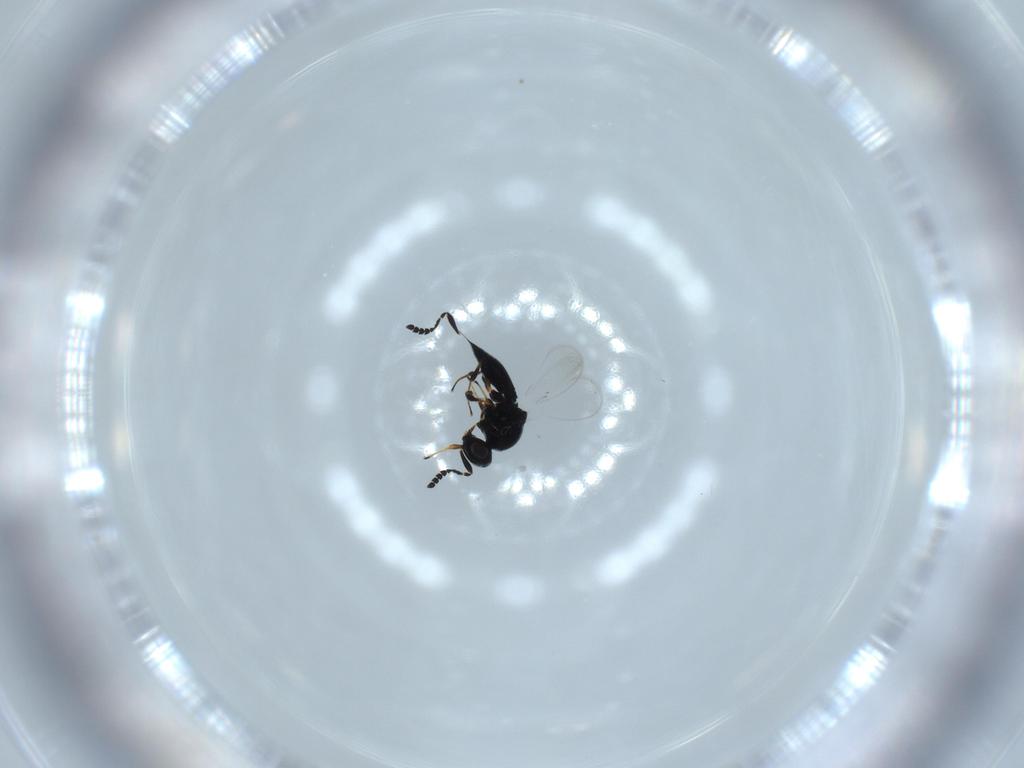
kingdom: Animalia
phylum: Arthropoda
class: Insecta
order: Hymenoptera
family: Platygastridae
